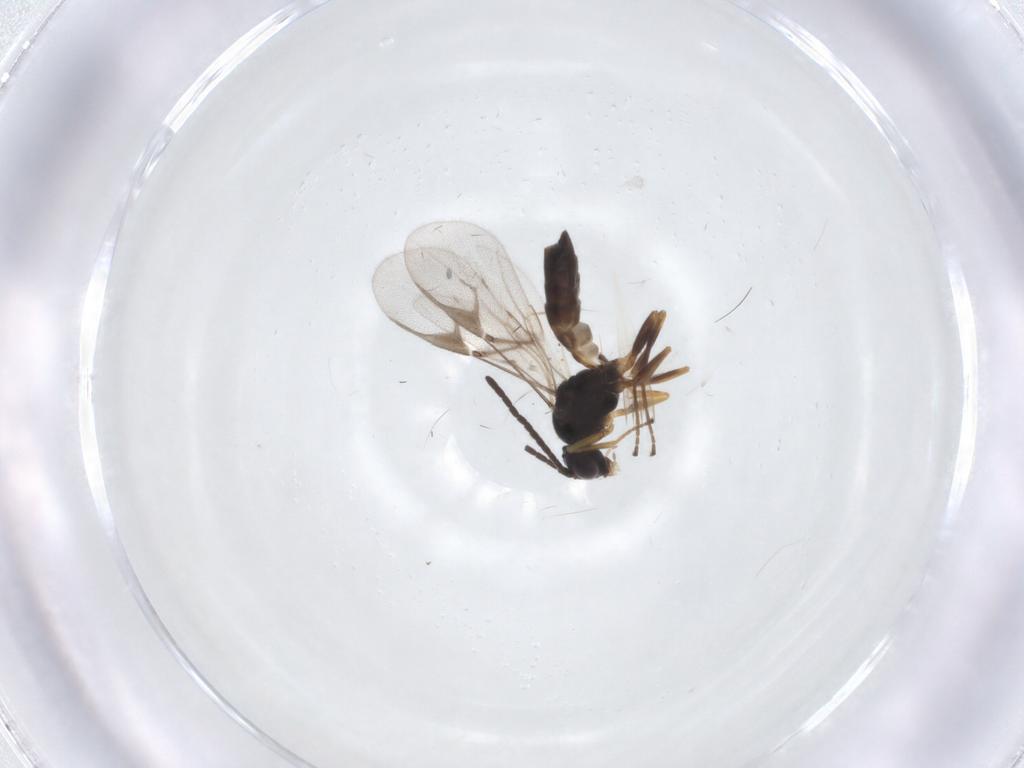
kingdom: Animalia
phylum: Arthropoda
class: Insecta
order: Hymenoptera
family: Braconidae
